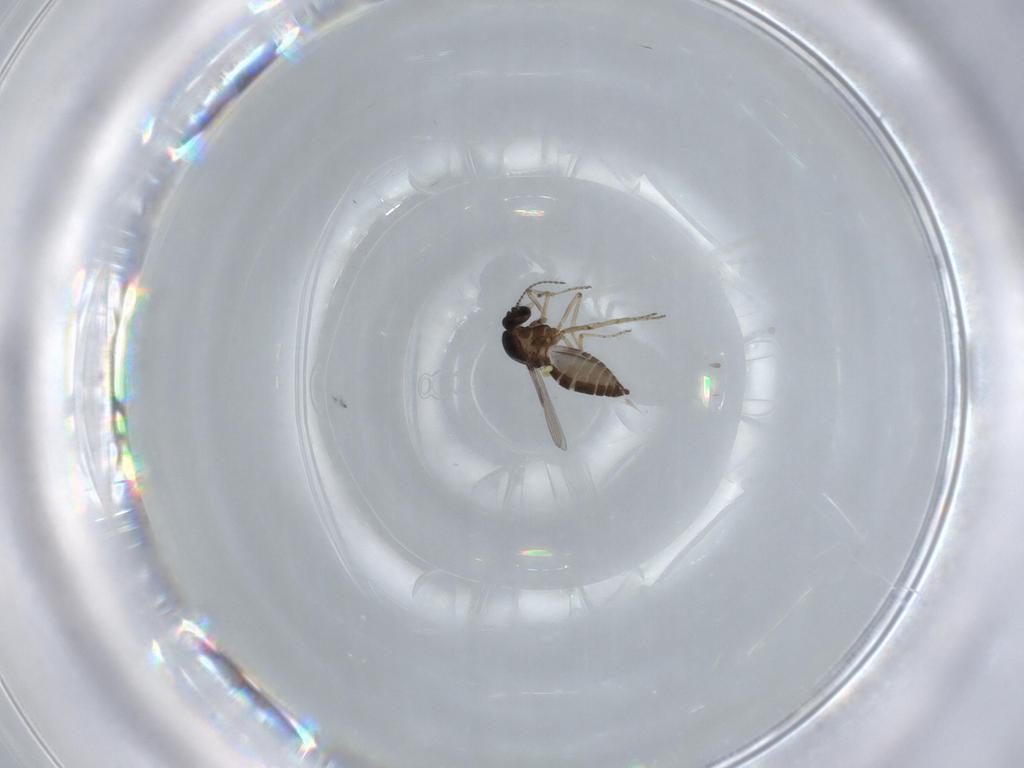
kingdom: Animalia
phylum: Arthropoda
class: Insecta
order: Diptera
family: Ceratopogonidae
